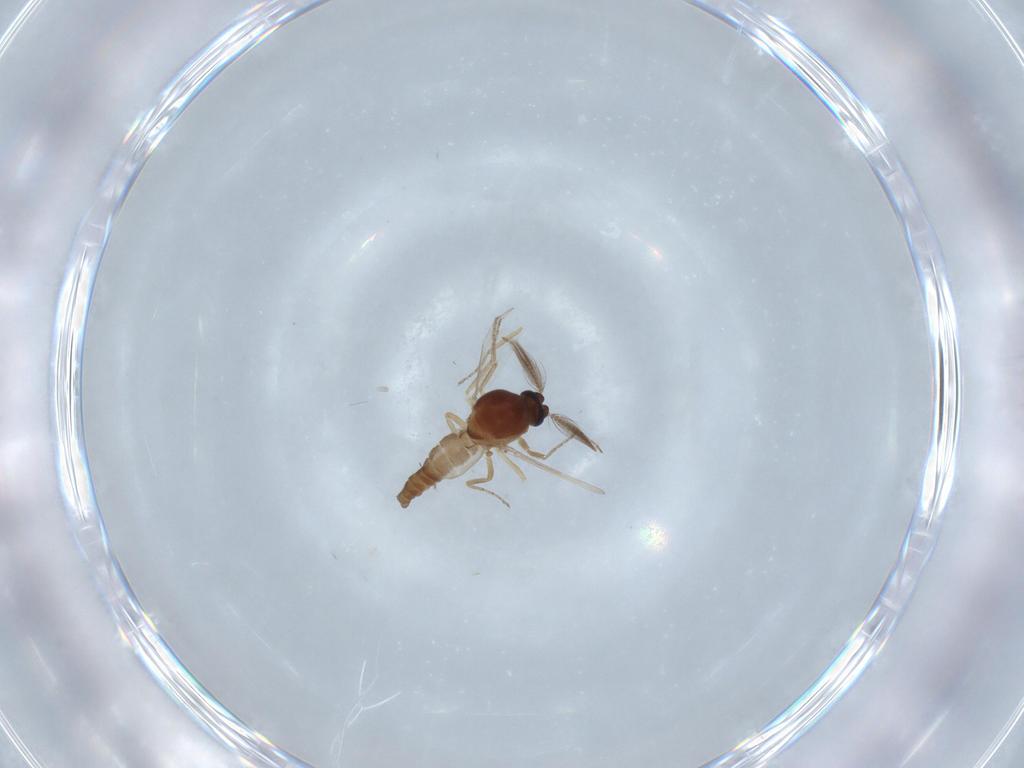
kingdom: Animalia
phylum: Arthropoda
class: Insecta
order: Diptera
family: Ceratopogonidae
